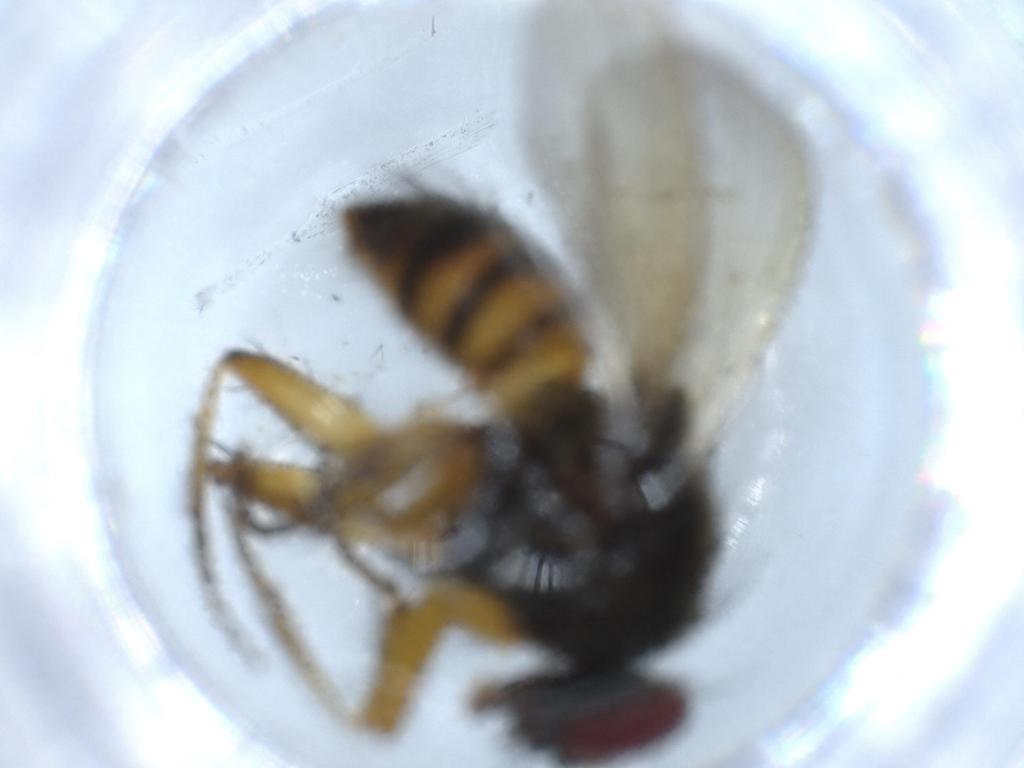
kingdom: Animalia
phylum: Arthropoda
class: Insecta
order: Diptera
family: Muscidae
